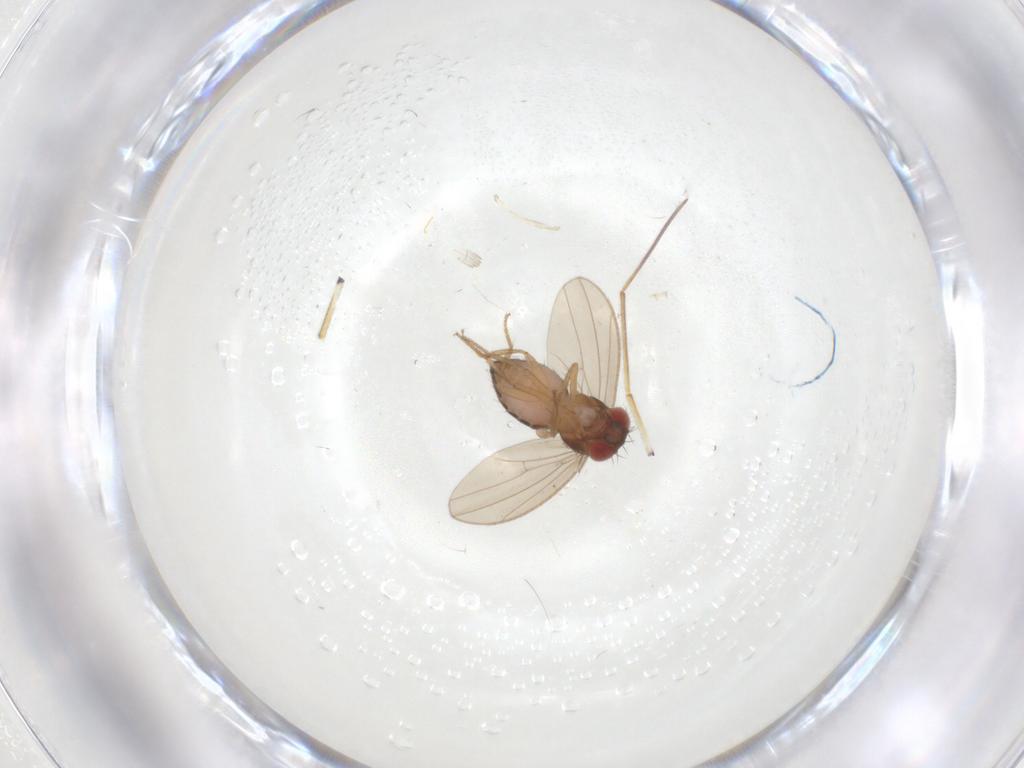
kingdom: Animalia
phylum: Arthropoda
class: Insecta
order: Diptera
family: Drosophilidae
